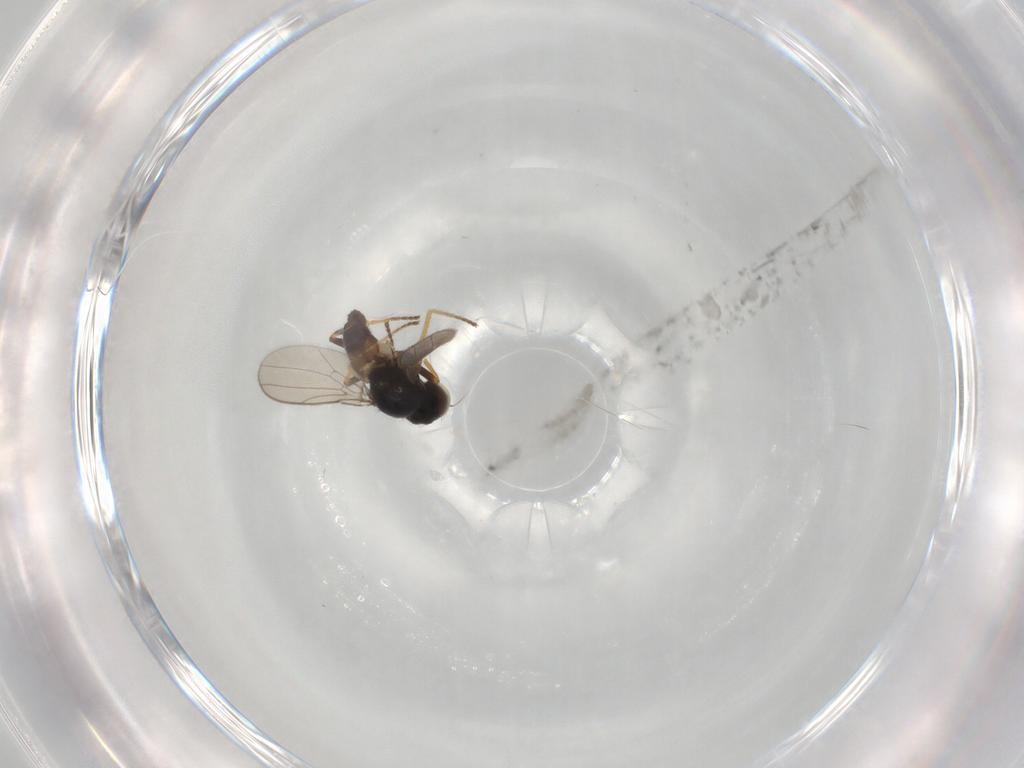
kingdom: Animalia
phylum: Arthropoda
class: Insecta
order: Diptera
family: Chloropidae
